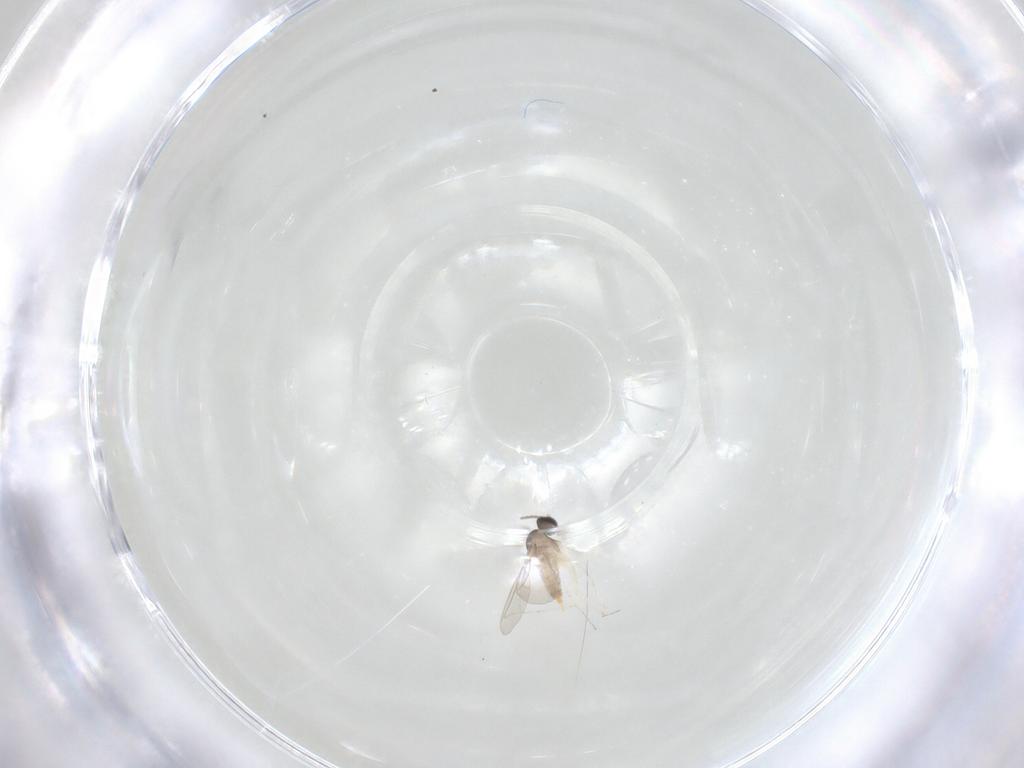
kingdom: Animalia
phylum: Arthropoda
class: Insecta
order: Diptera
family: Cecidomyiidae
